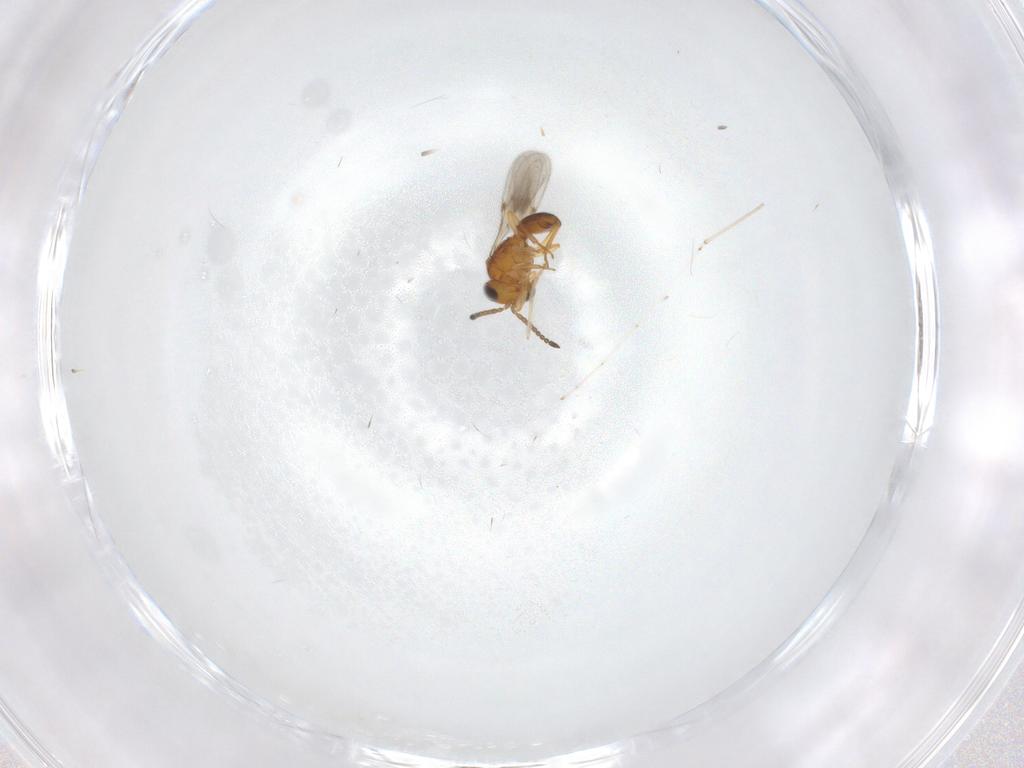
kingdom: Animalia
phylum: Arthropoda
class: Insecta
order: Hymenoptera
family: Scelionidae
